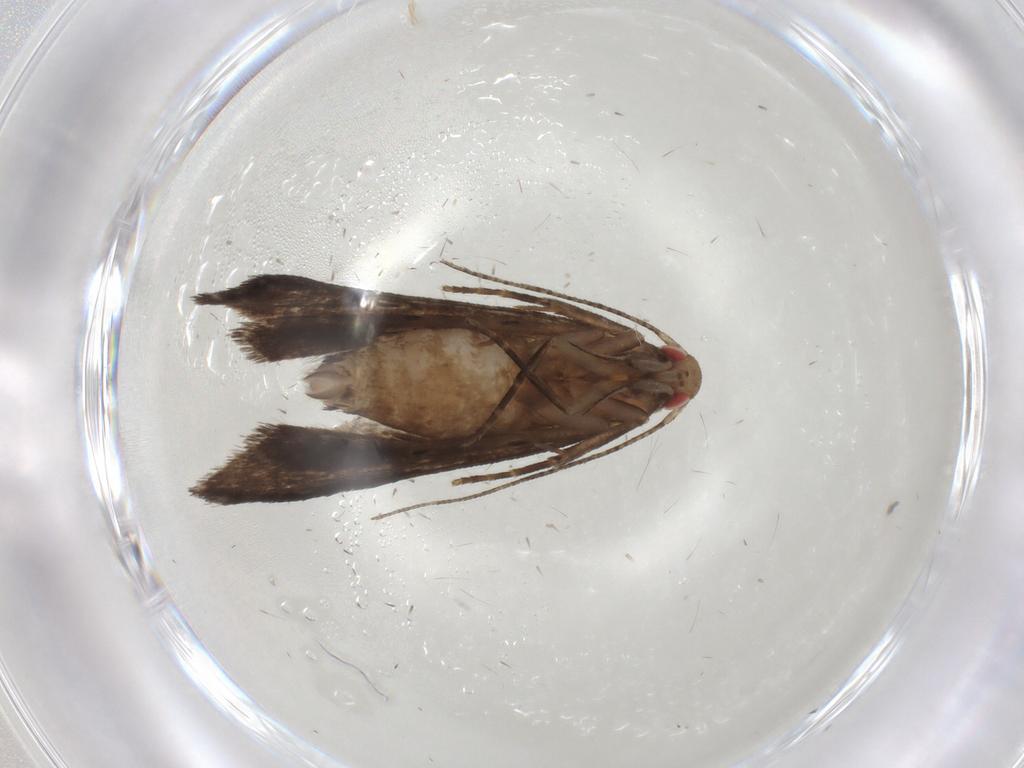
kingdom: Animalia
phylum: Arthropoda
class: Insecta
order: Lepidoptera
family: Gelechiidae
